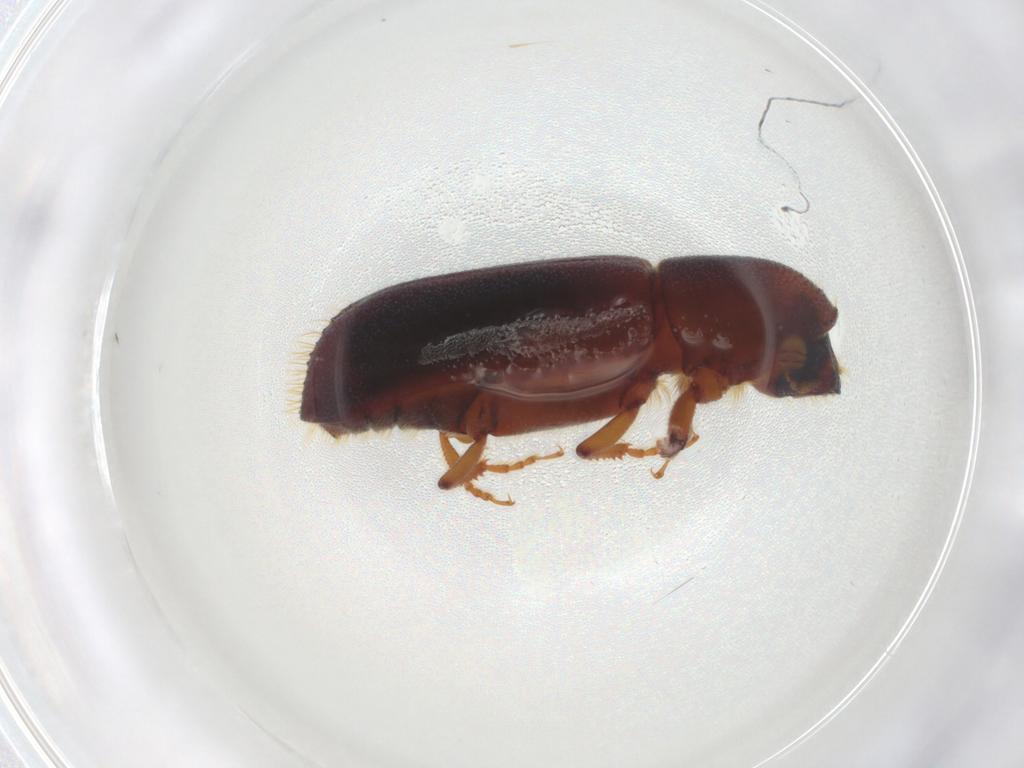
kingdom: Animalia
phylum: Arthropoda
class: Insecta
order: Coleoptera
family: Curculionidae
